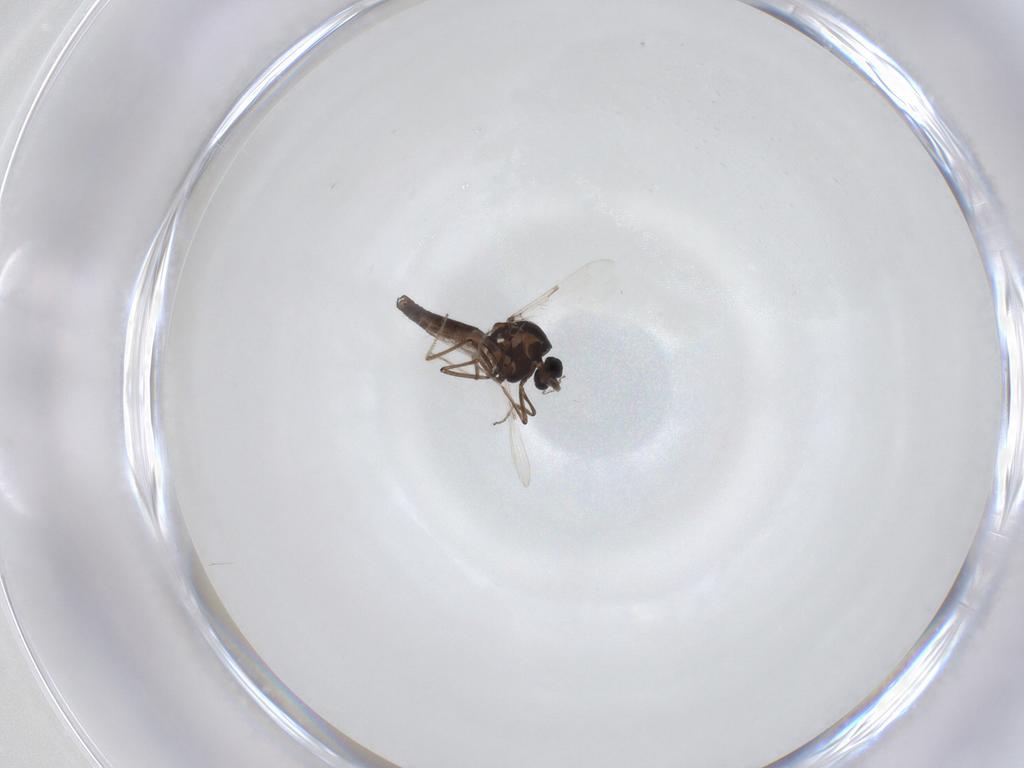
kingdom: Animalia
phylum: Arthropoda
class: Insecta
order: Diptera
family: Ceratopogonidae
